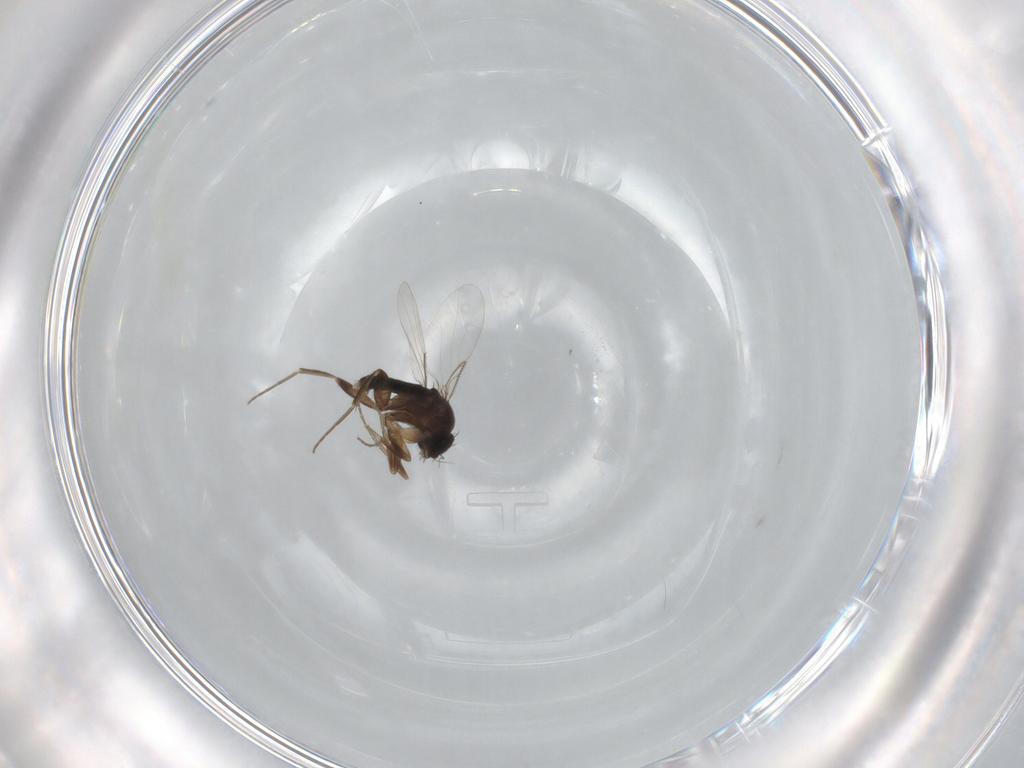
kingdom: Animalia
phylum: Arthropoda
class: Insecta
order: Diptera
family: Phoridae
